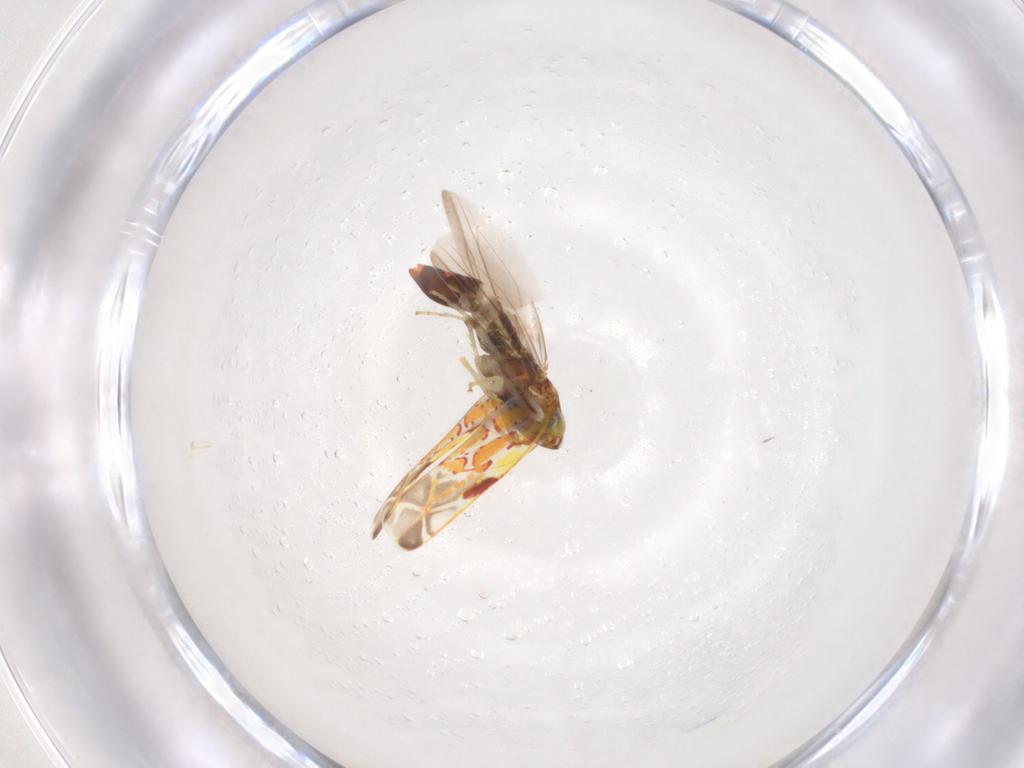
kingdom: Animalia
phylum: Arthropoda
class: Insecta
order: Hemiptera
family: Cicadellidae
